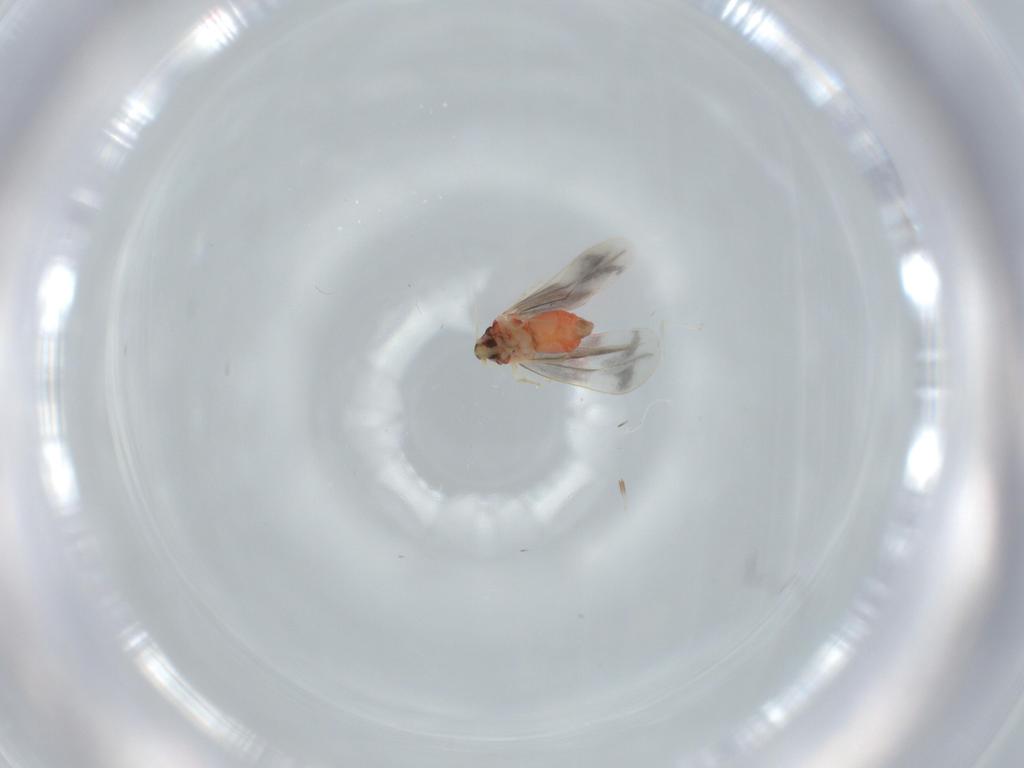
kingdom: Animalia
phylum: Arthropoda
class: Insecta
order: Hemiptera
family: Aleyrodidae
